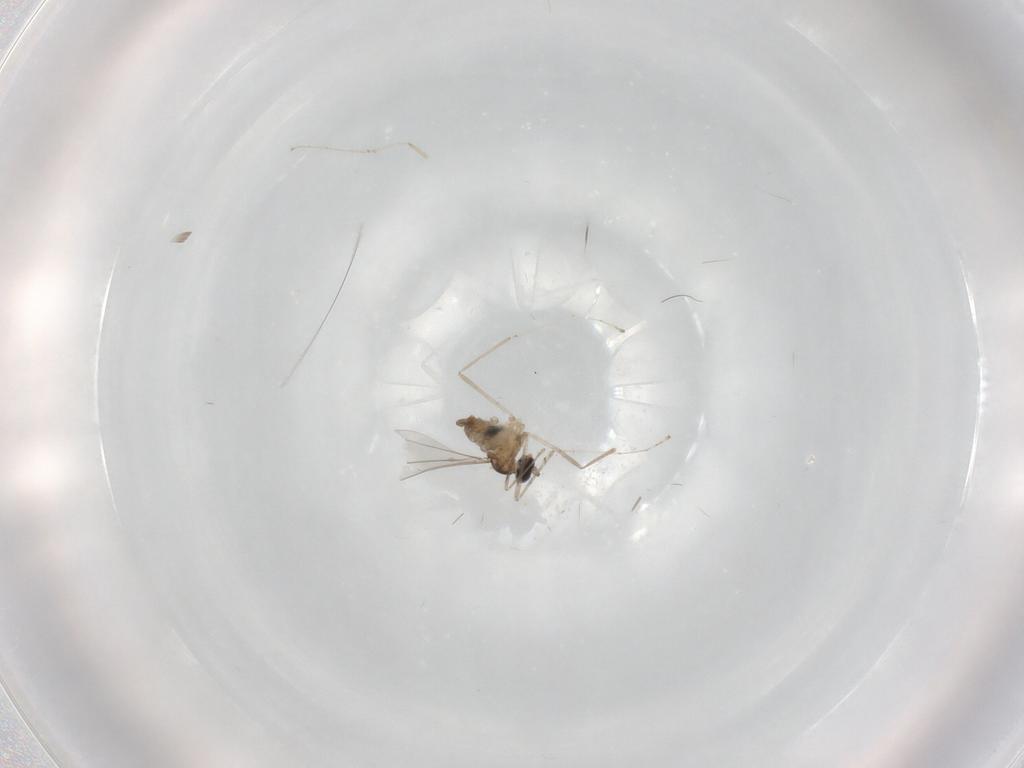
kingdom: Animalia
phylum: Arthropoda
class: Insecta
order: Diptera
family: Cecidomyiidae
